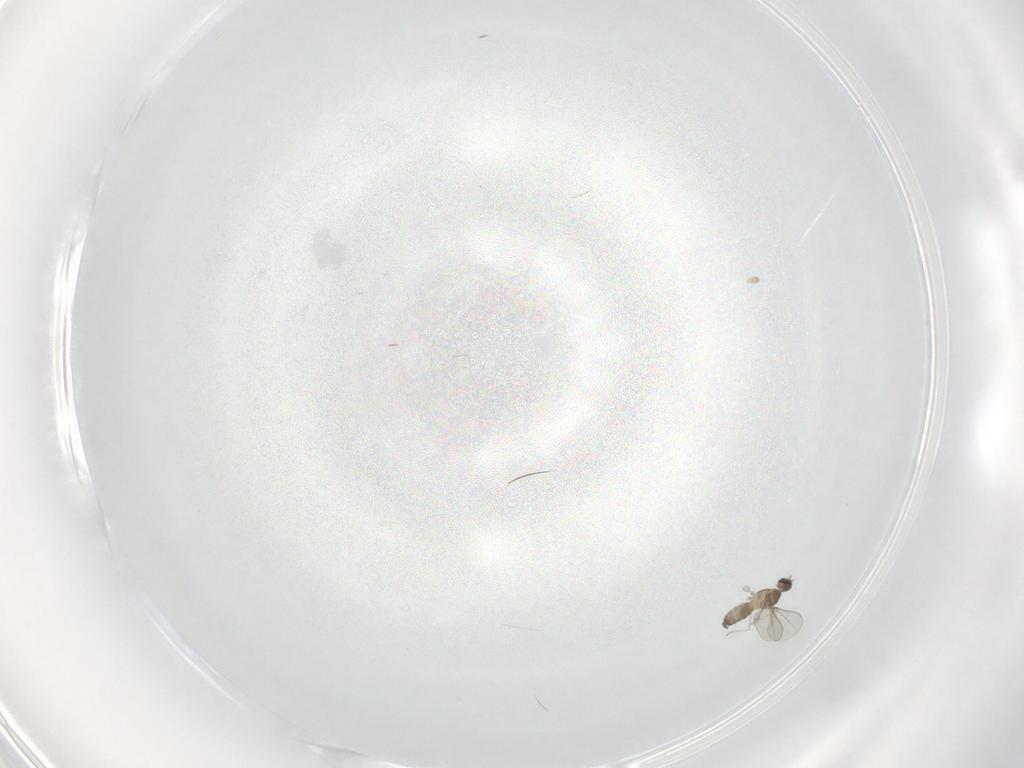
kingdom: Animalia
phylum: Arthropoda
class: Insecta
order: Diptera
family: Cecidomyiidae
